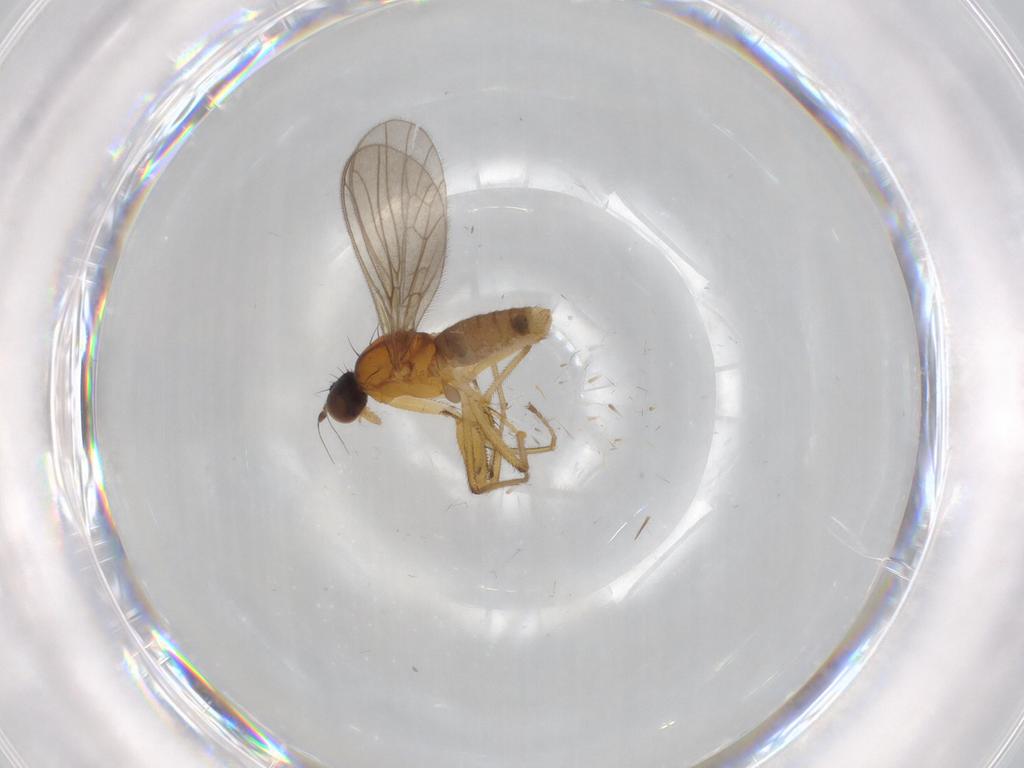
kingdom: Animalia
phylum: Arthropoda
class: Insecta
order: Diptera
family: Empididae
